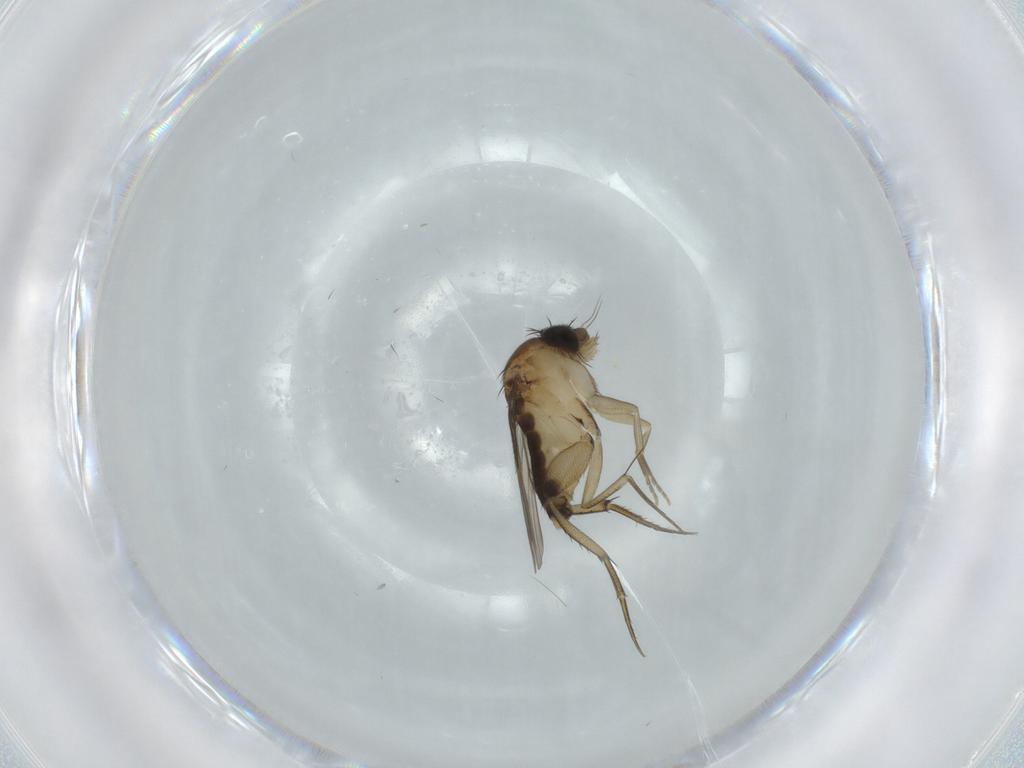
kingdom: Animalia
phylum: Arthropoda
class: Insecta
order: Diptera
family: Phoridae
